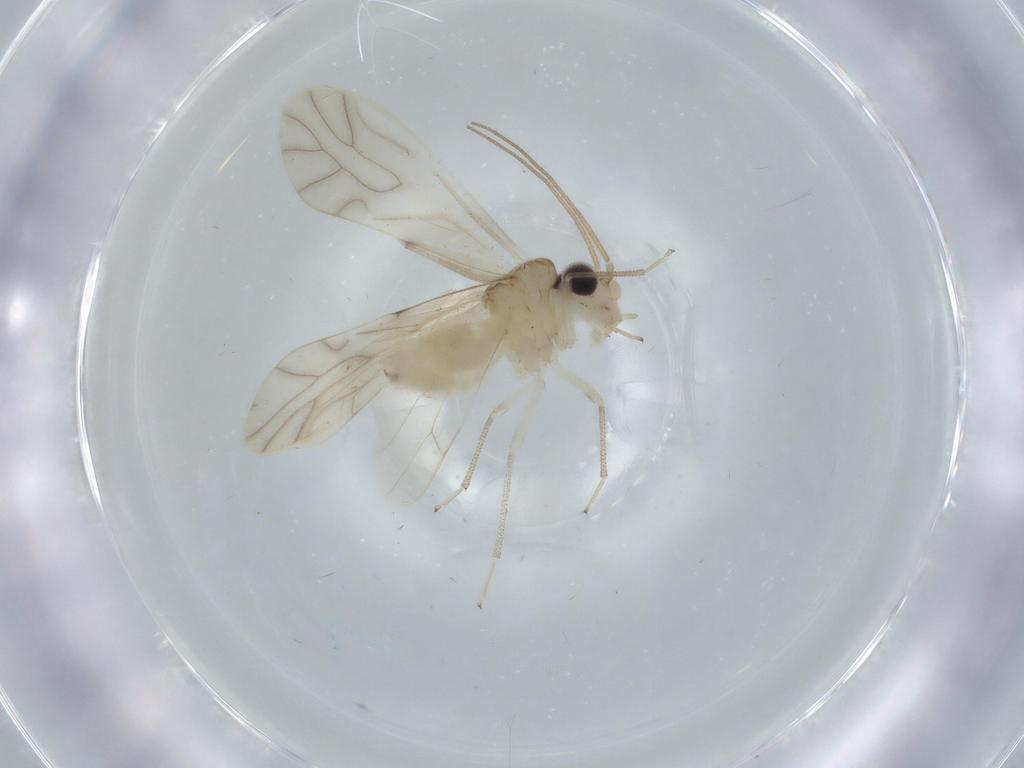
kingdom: Animalia
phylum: Arthropoda
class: Insecta
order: Psocodea
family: Caeciliusidae
